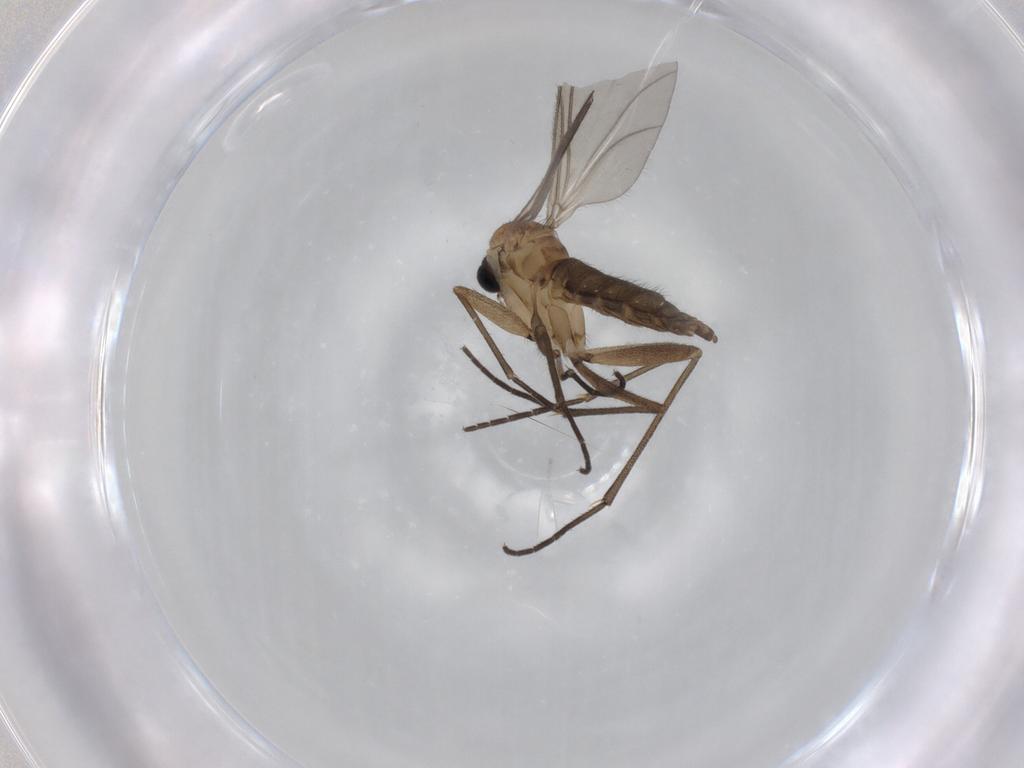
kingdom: Animalia
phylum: Arthropoda
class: Insecta
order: Diptera
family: Sciaridae
